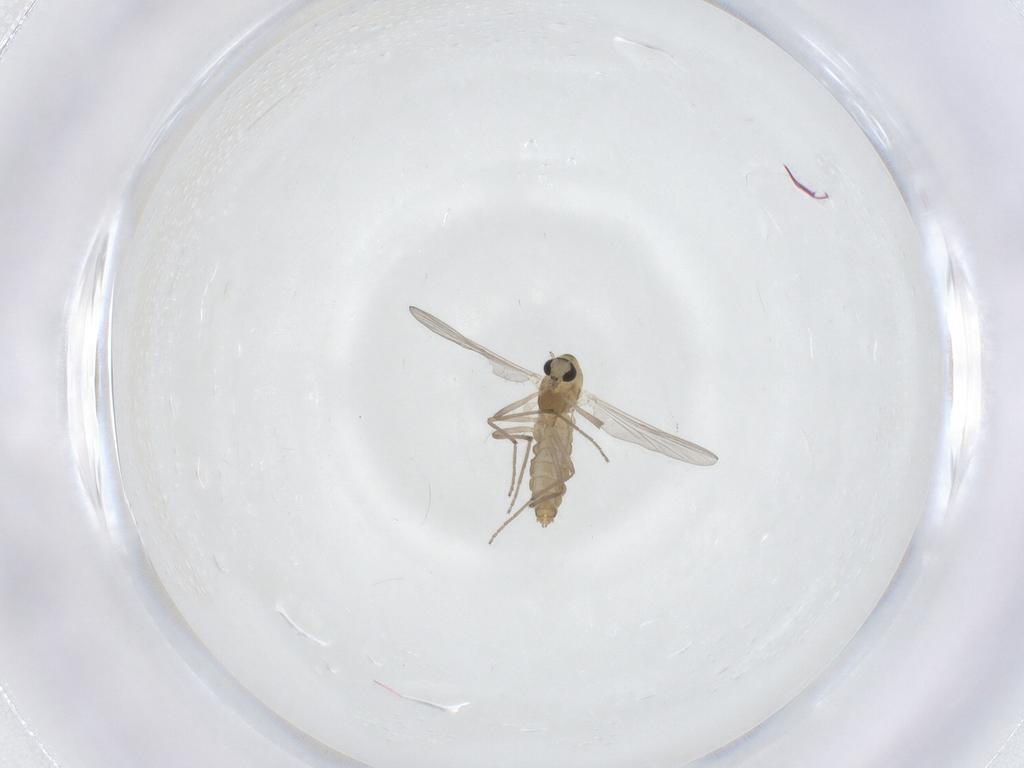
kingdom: Animalia
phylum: Arthropoda
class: Insecta
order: Diptera
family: Chironomidae
